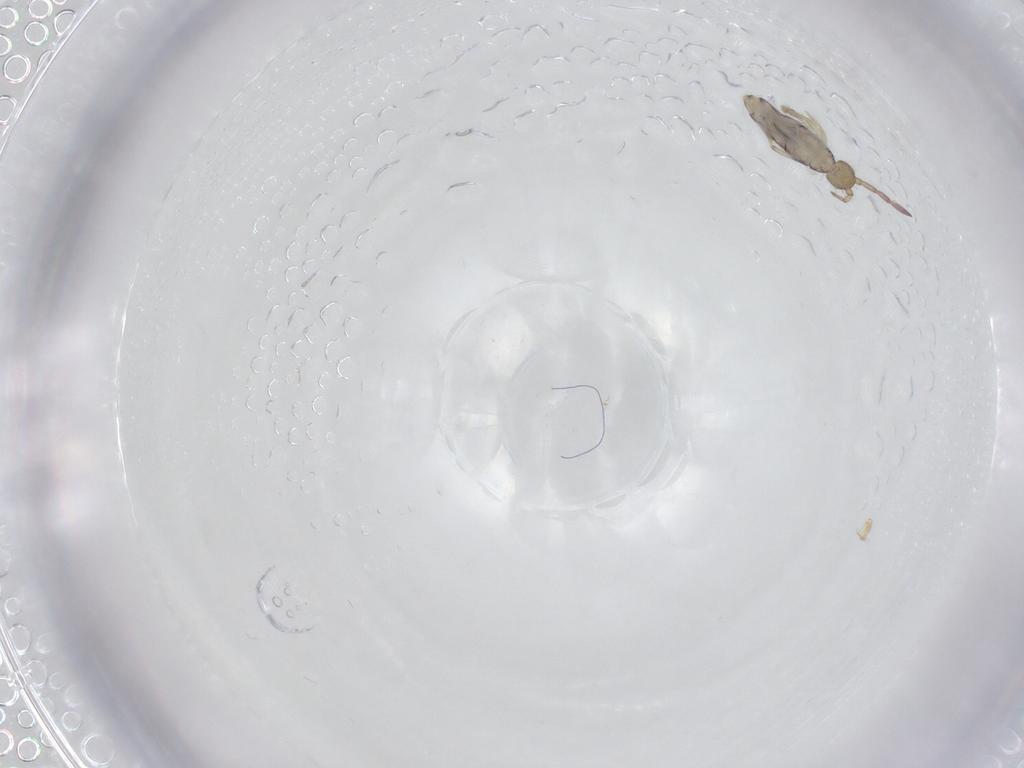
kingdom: Animalia
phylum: Arthropoda
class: Collembola
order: Entomobryomorpha
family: Entomobryidae
